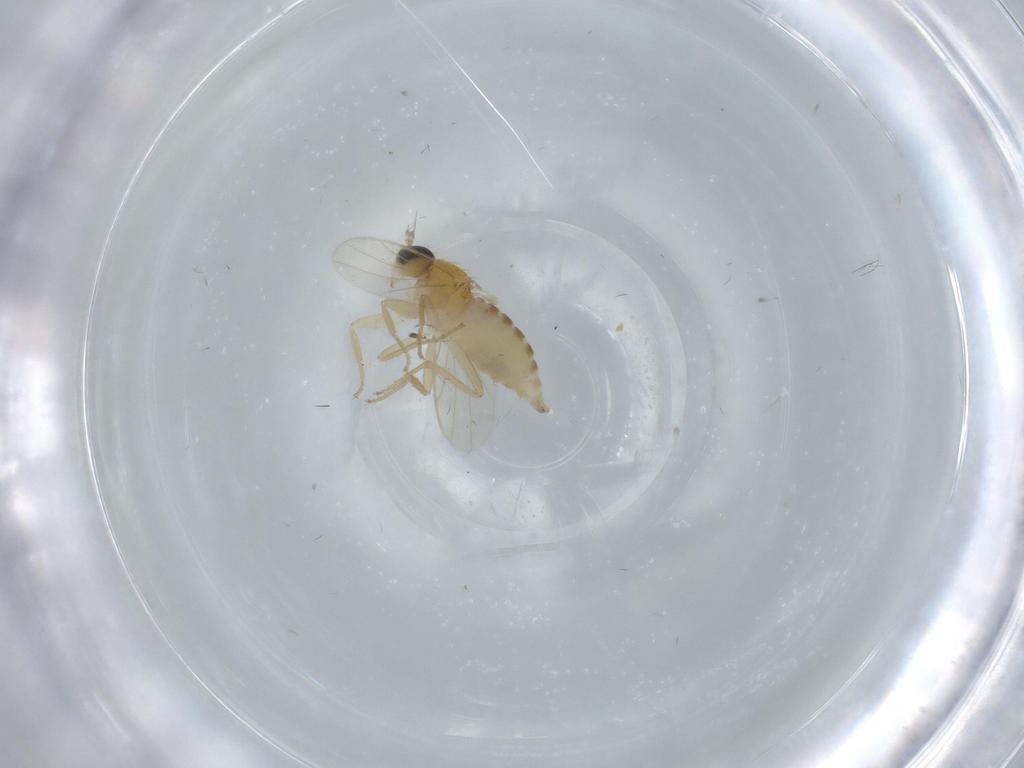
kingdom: Animalia
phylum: Arthropoda
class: Insecta
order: Diptera
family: Hybotidae
